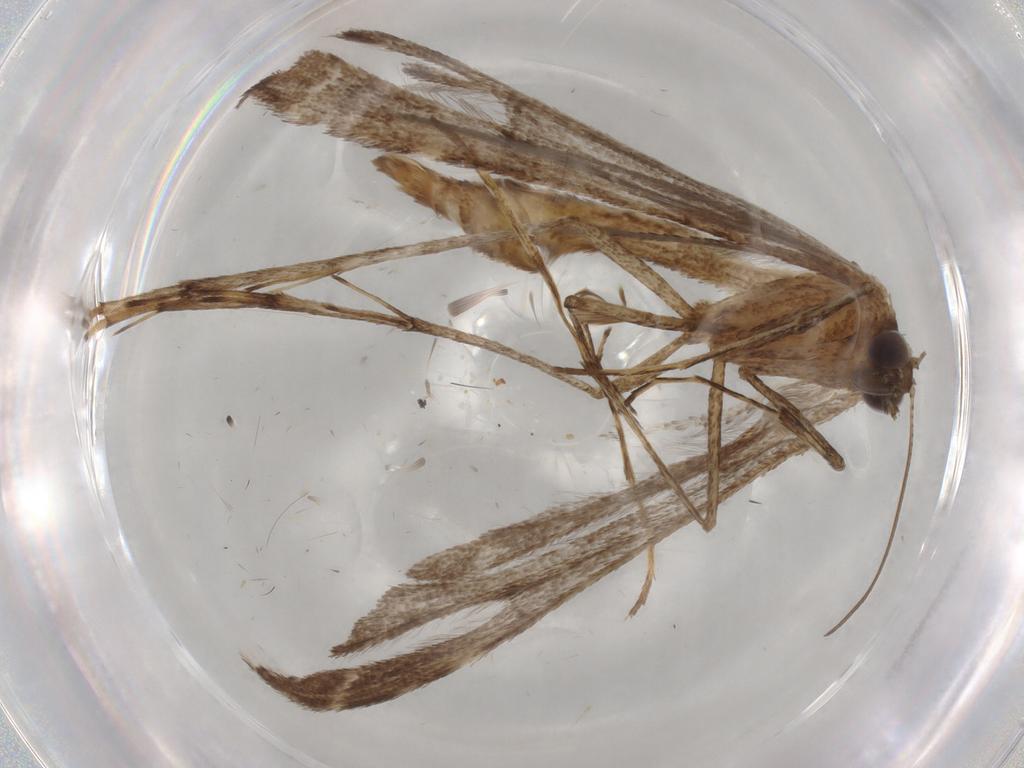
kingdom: Animalia
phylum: Arthropoda
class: Insecta
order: Lepidoptera
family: Pterophoridae
